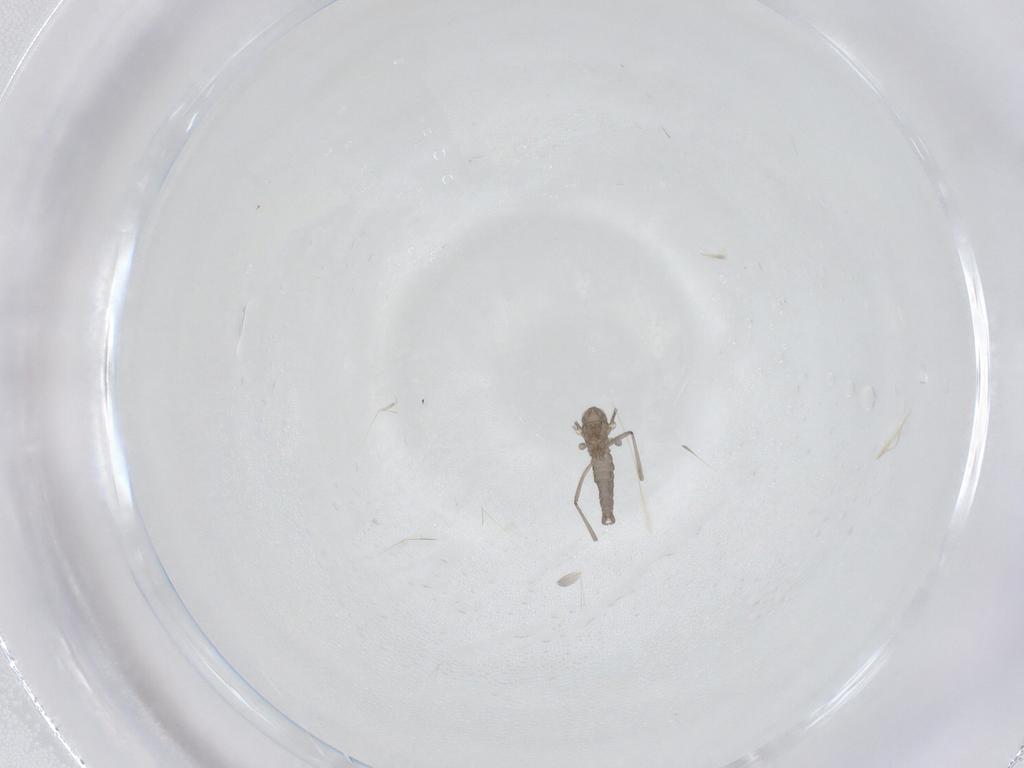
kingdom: Animalia
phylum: Arthropoda
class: Insecta
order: Diptera
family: Cecidomyiidae
